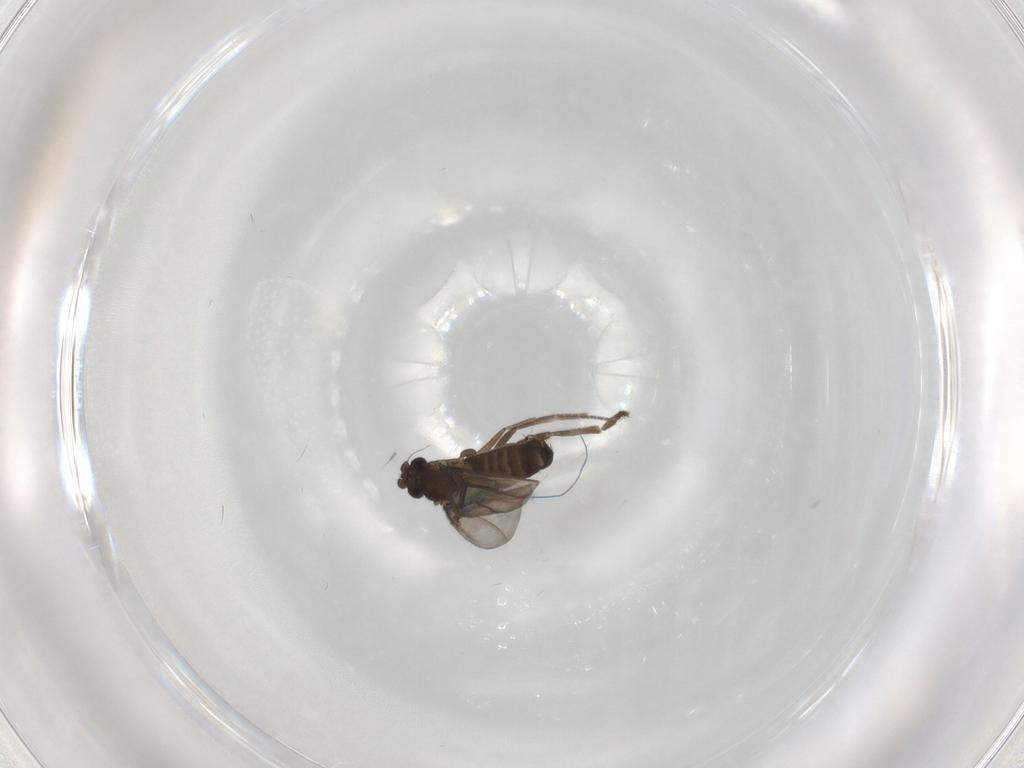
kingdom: Animalia
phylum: Arthropoda
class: Insecta
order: Diptera
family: Phoridae
